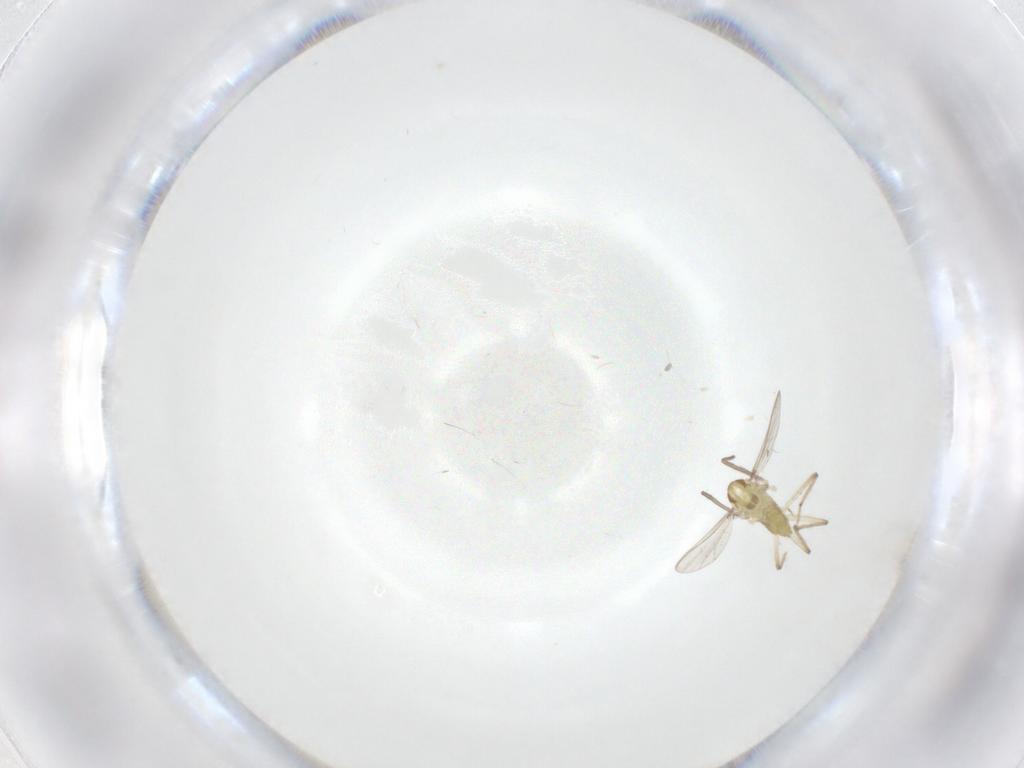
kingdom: Animalia
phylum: Arthropoda
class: Insecta
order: Diptera
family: Chironomidae
